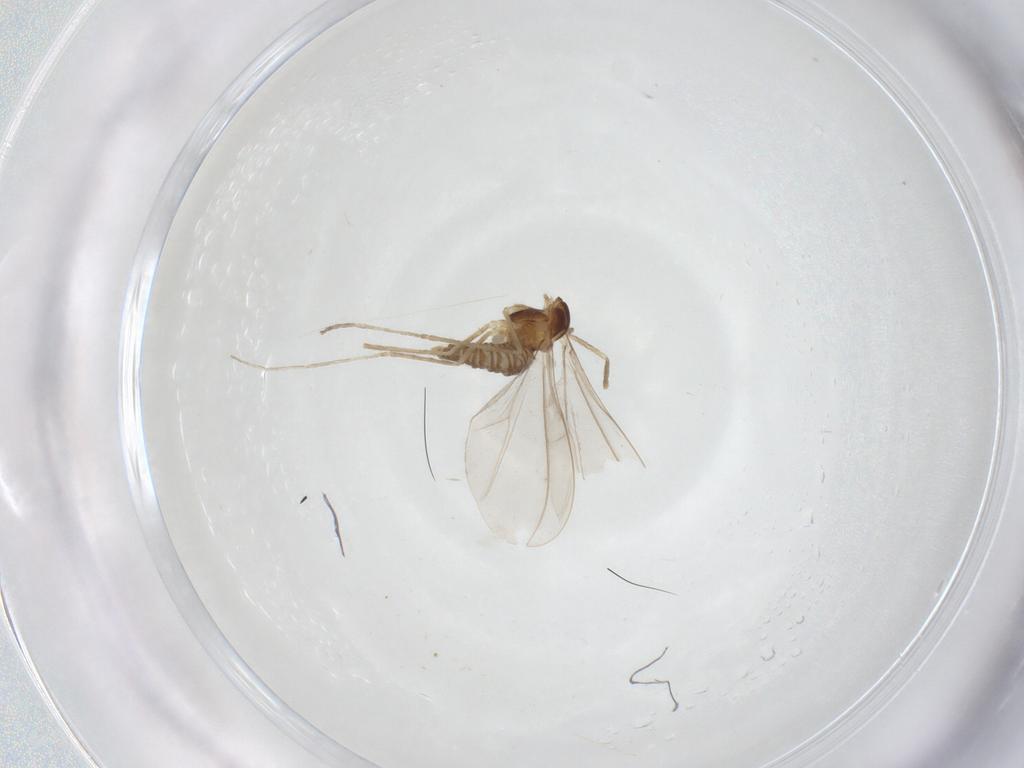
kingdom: Animalia
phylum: Arthropoda
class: Insecta
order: Diptera
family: Cecidomyiidae
